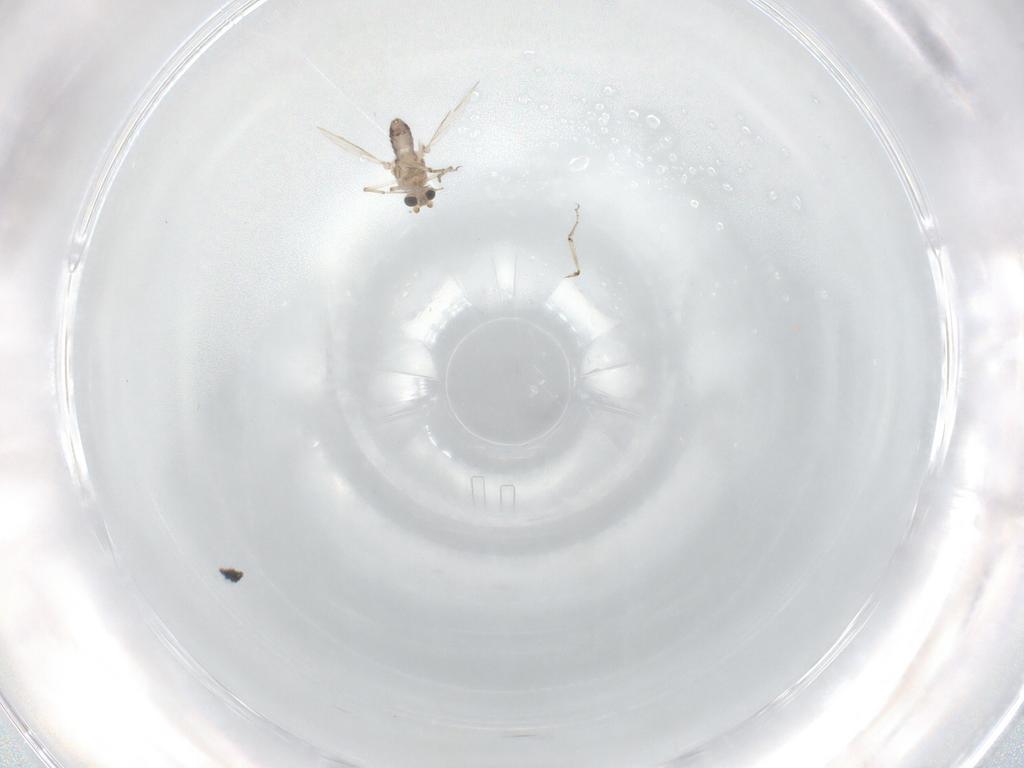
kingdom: Animalia
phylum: Arthropoda
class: Insecta
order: Diptera
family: Ceratopogonidae
